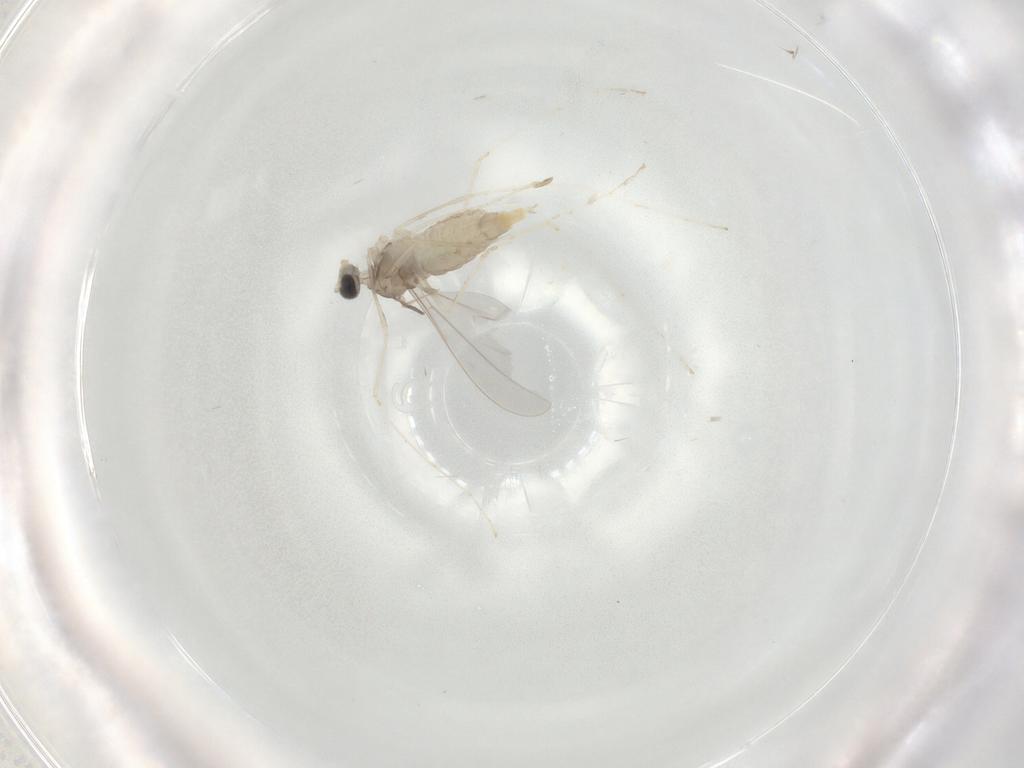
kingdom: Animalia
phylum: Arthropoda
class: Insecta
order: Diptera
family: Cecidomyiidae
